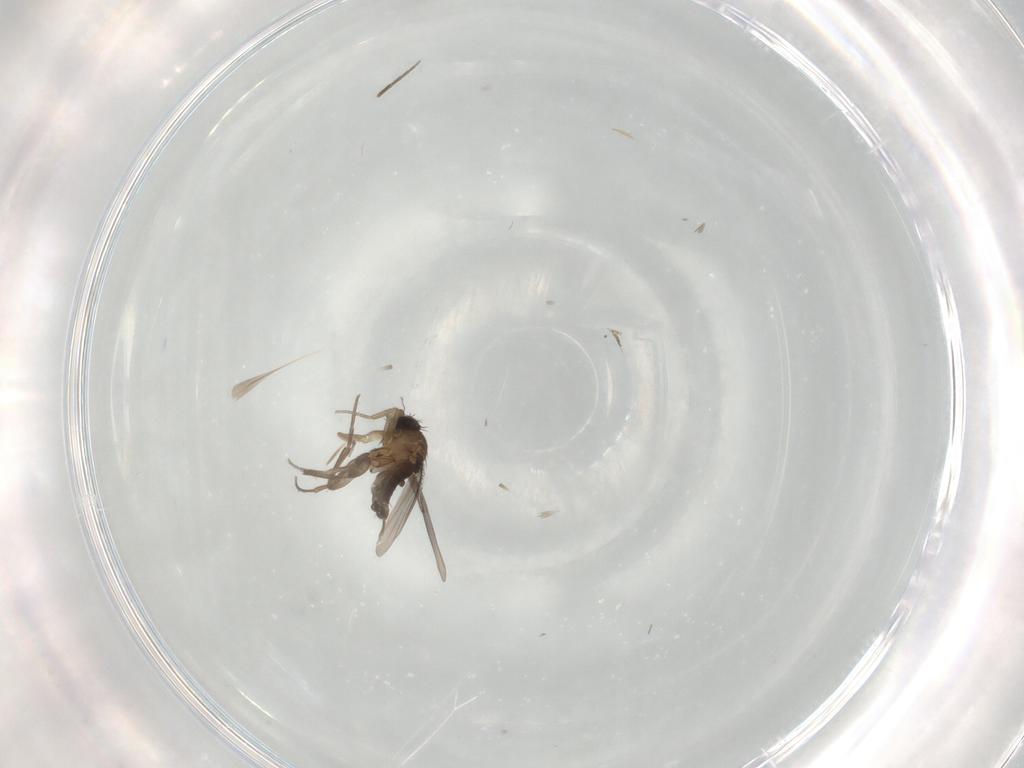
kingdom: Animalia
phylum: Arthropoda
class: Insecta
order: Diptera
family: Phoridae
